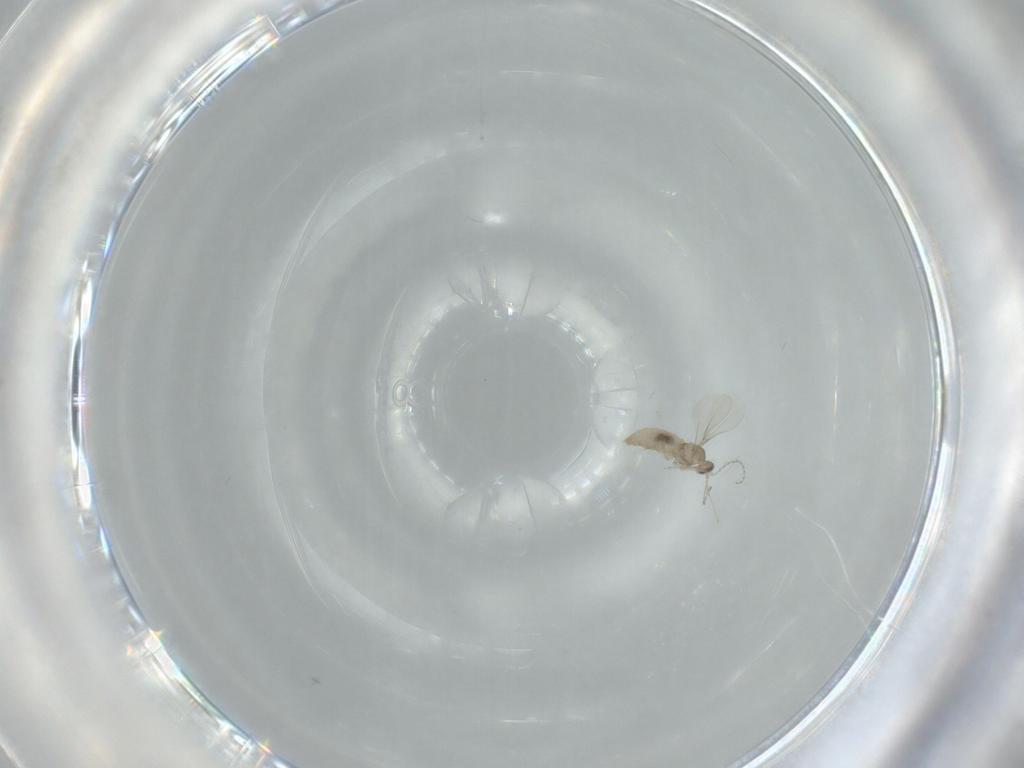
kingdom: Animalia
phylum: Arthropoda
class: Insecta
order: Diptera
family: Cecidomyiidae
